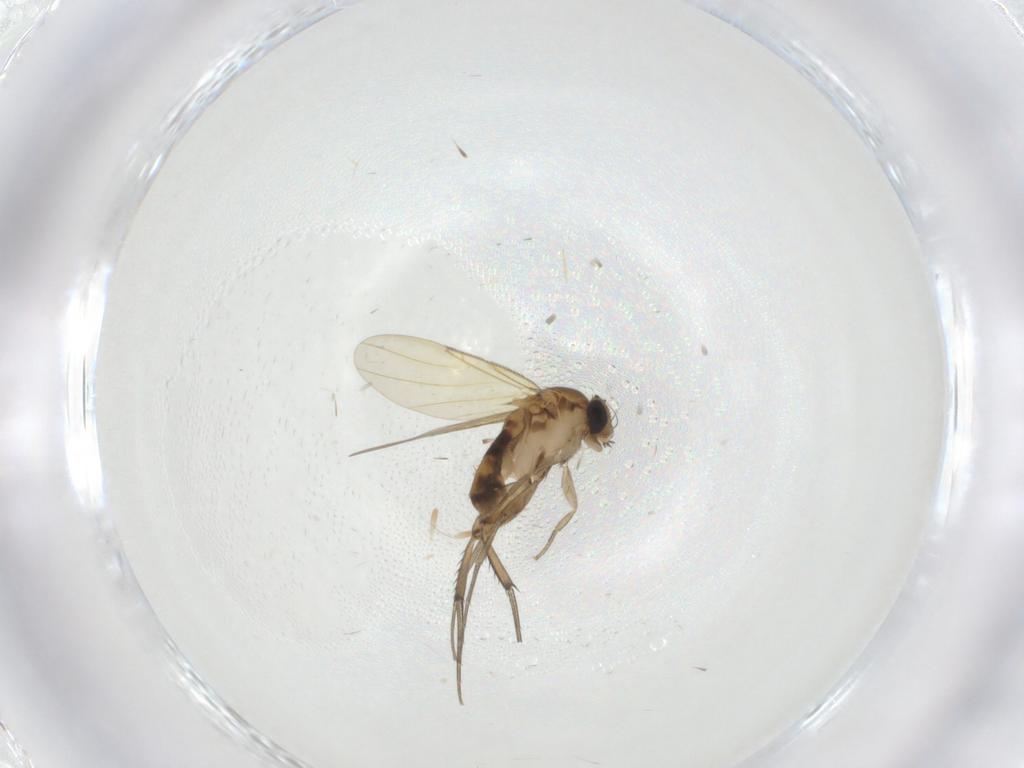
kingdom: Animalia
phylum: Arthropoda
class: Insecta
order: Diptera
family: Phoridae
